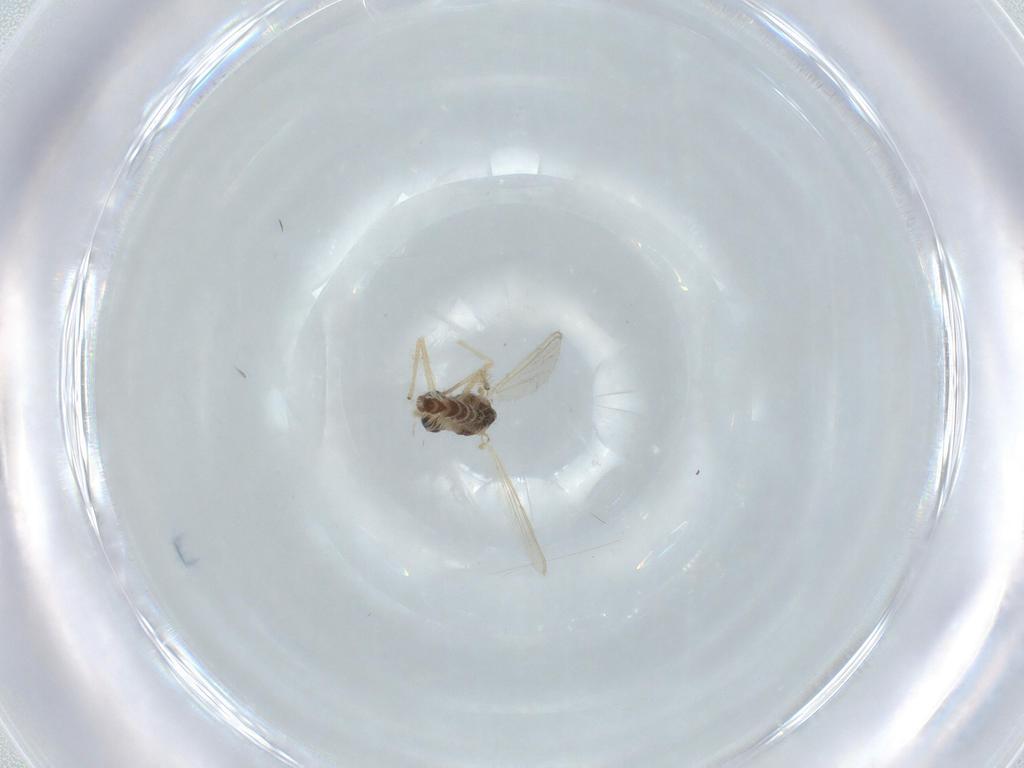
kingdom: Animalia
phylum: Arthropoda
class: Insecta
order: Diptera
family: Chironomidae
